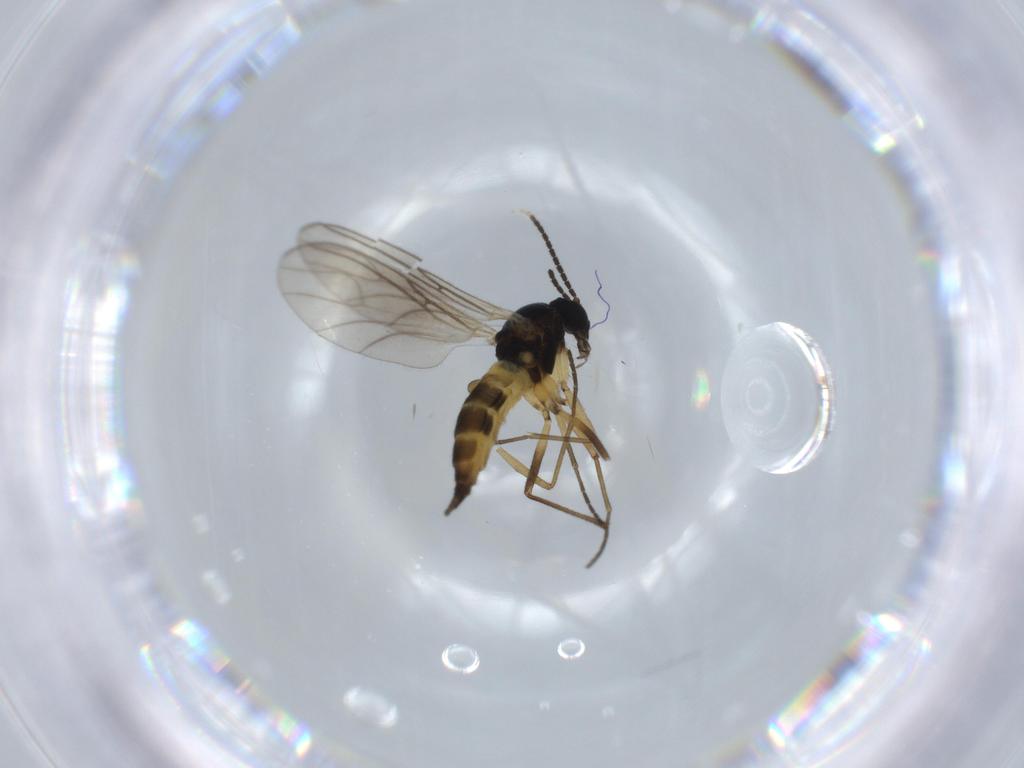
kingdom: Animalia
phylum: Arthropoda
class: Insecta
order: Diptera
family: Sciaridae
